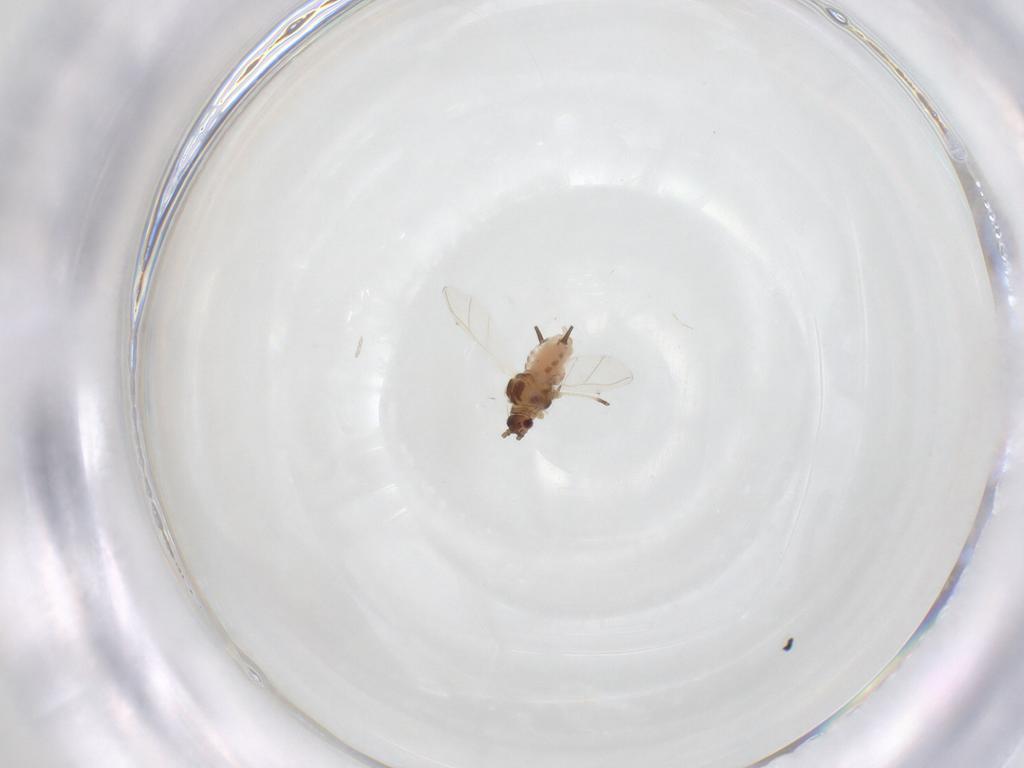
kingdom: Animalia
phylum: Arthropoda
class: Insecta
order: Hemiptera
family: Aphididae
